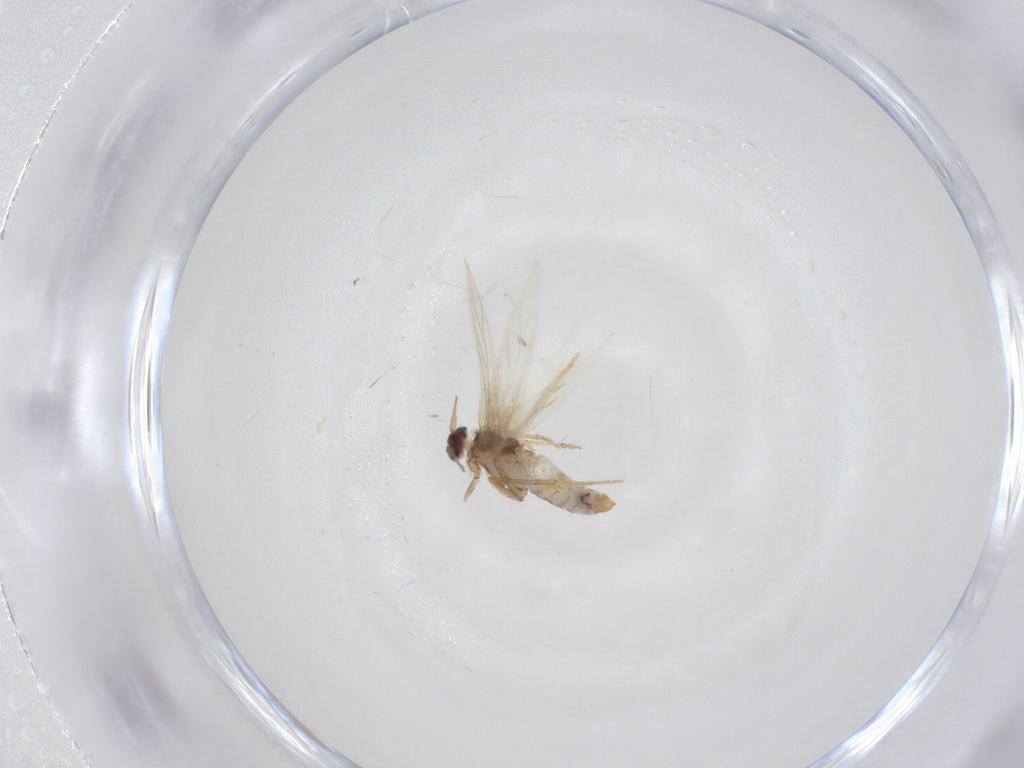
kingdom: Animalia
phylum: Arthropoda
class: Insecta
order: Lepidoptera
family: Nepticulidae
